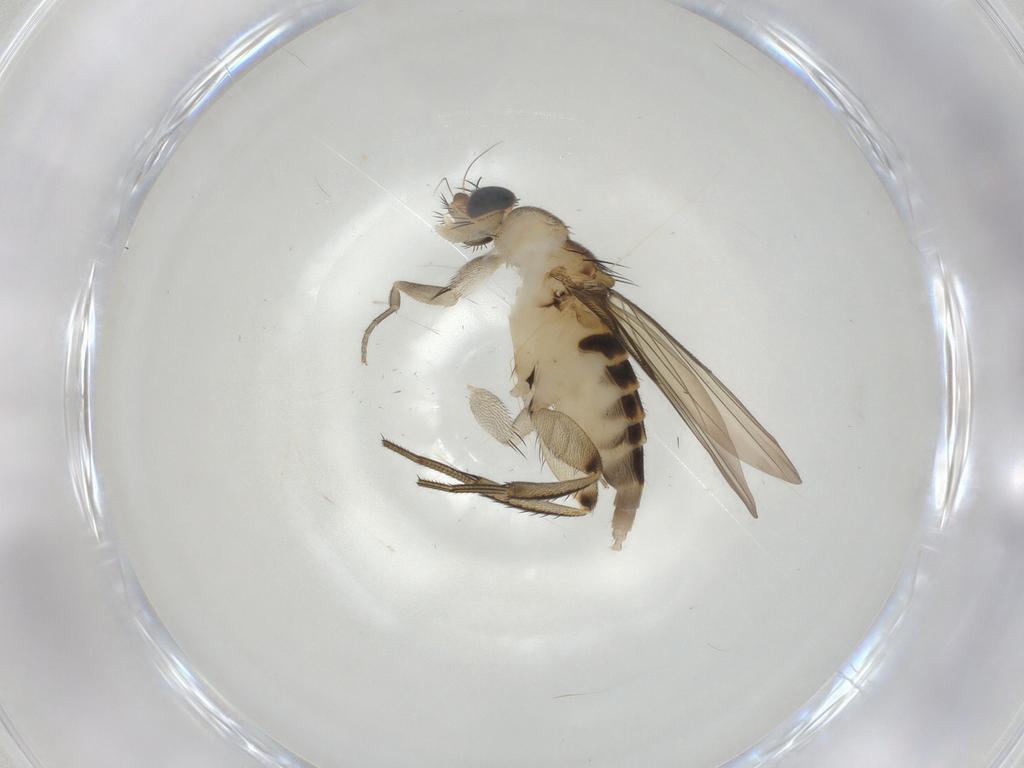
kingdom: Animalia
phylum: Arthropoda
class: Insecta
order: Diptera
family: Phoridae
